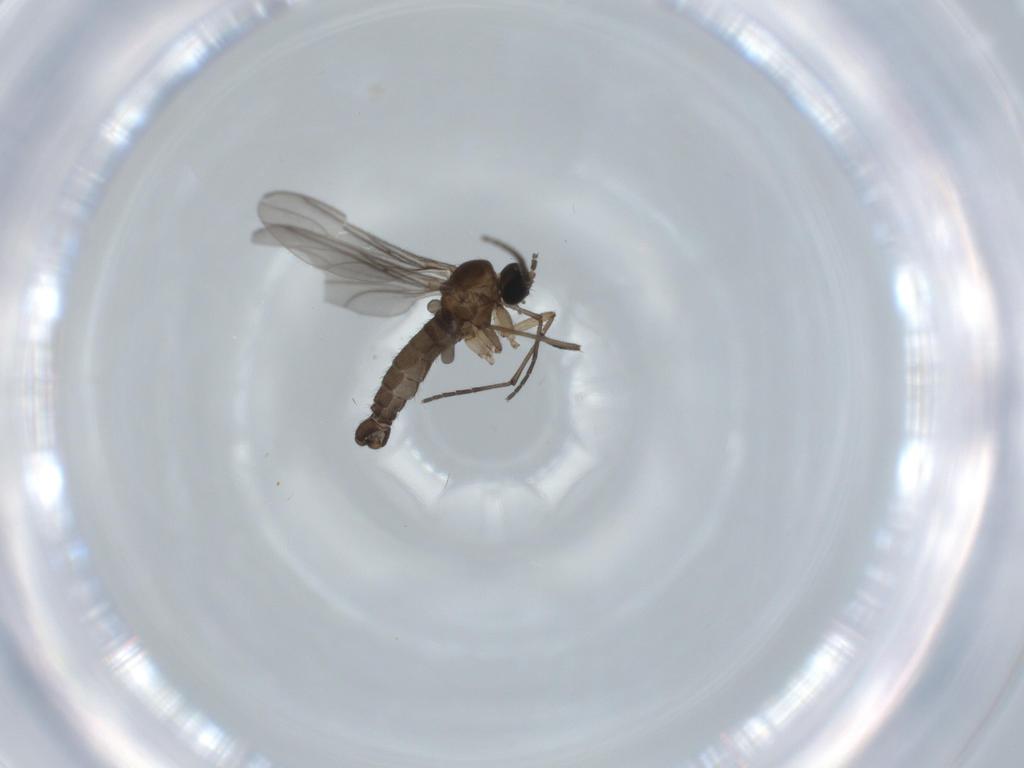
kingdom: Animalia
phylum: Arthropoda
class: Insecta
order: Diptera
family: Sciaridae
